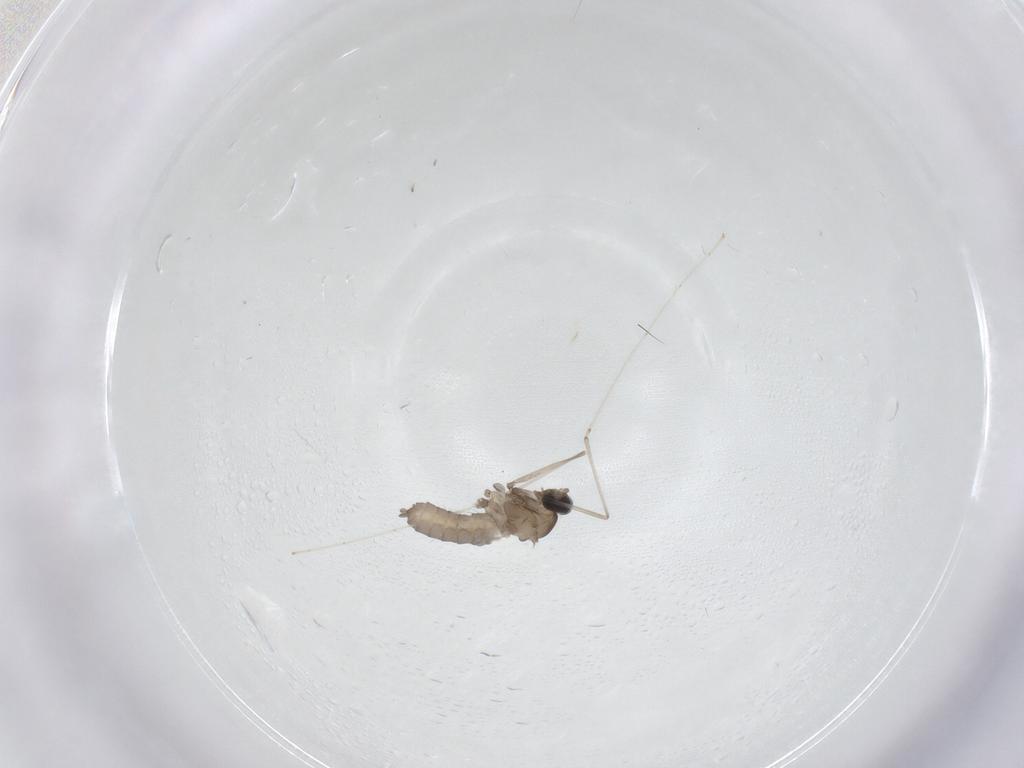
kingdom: Animalia
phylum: Arthropoda
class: Insecta
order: Diptera
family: Cecidomyiidae
